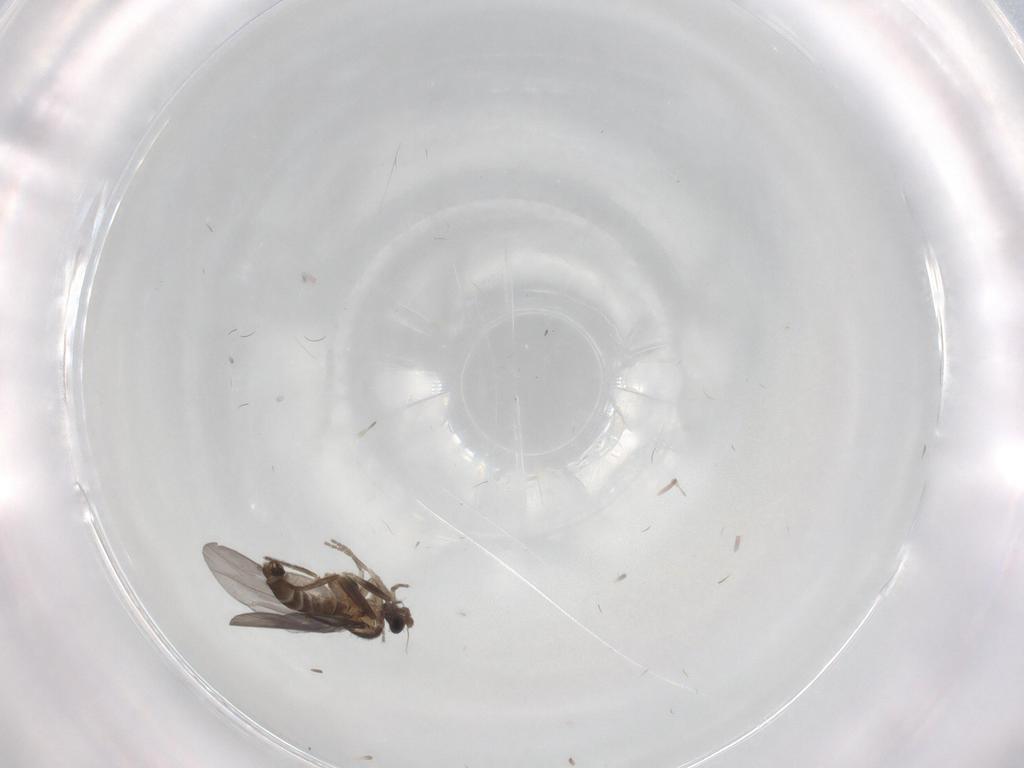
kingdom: Animalia
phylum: Arthropoda
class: Insecta
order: Diptera
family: Phoridae
